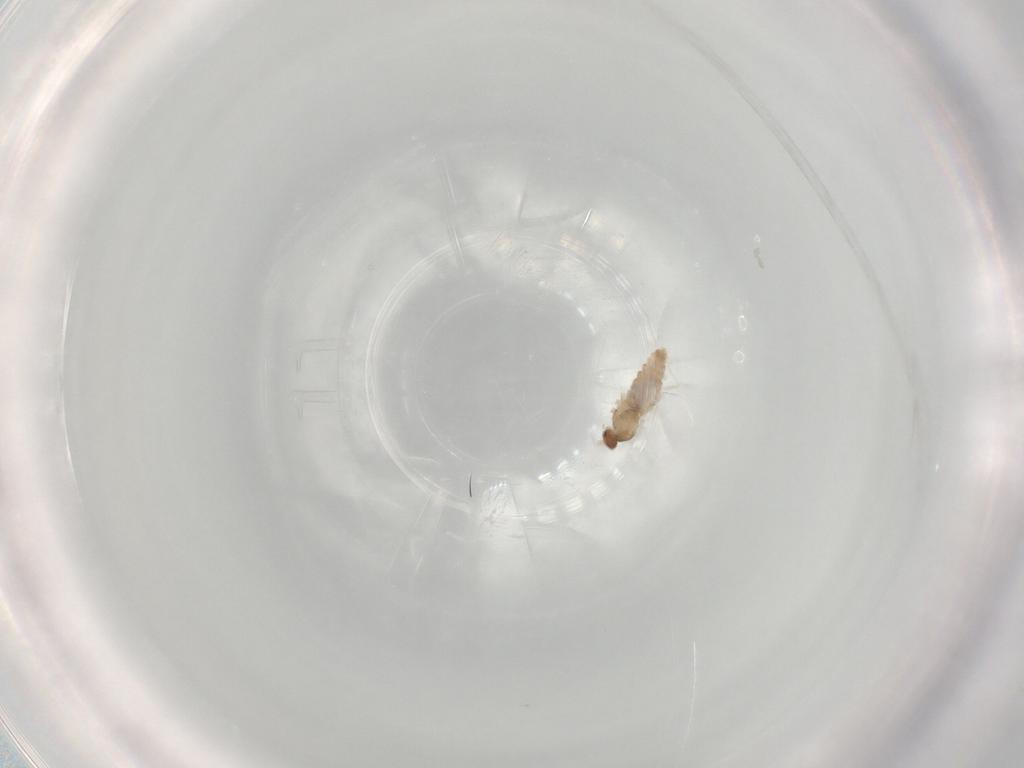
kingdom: Animalia
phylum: Arthropoda
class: Insecta
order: Diptera
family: Cecidomyiidae
